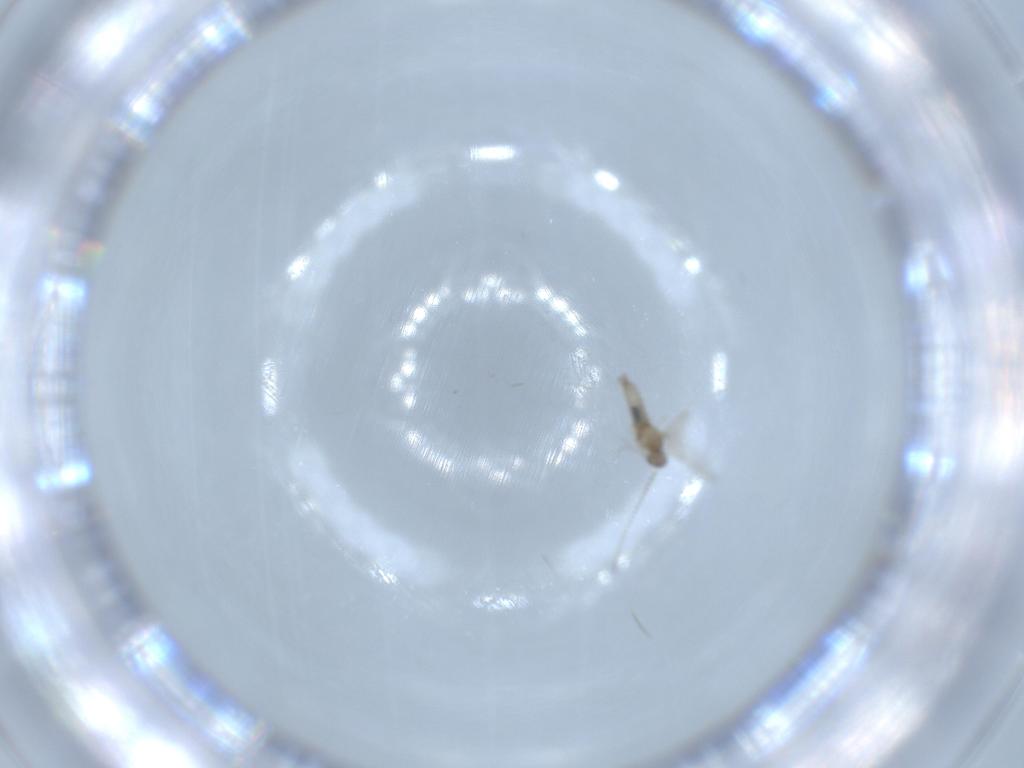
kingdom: Animalia
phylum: Arthropoda
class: Insecta
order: Diptera
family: Cecidomyiidae
